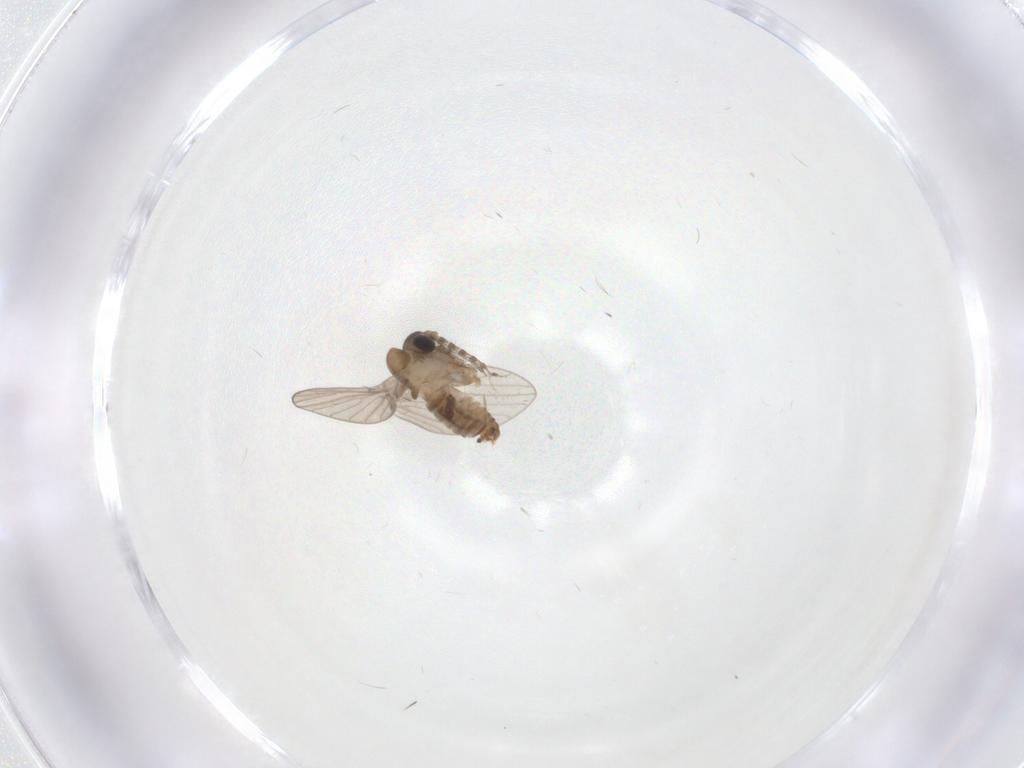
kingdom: Animalia
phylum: Arthropoda
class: Insecta
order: Diptera
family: Psychodidae
